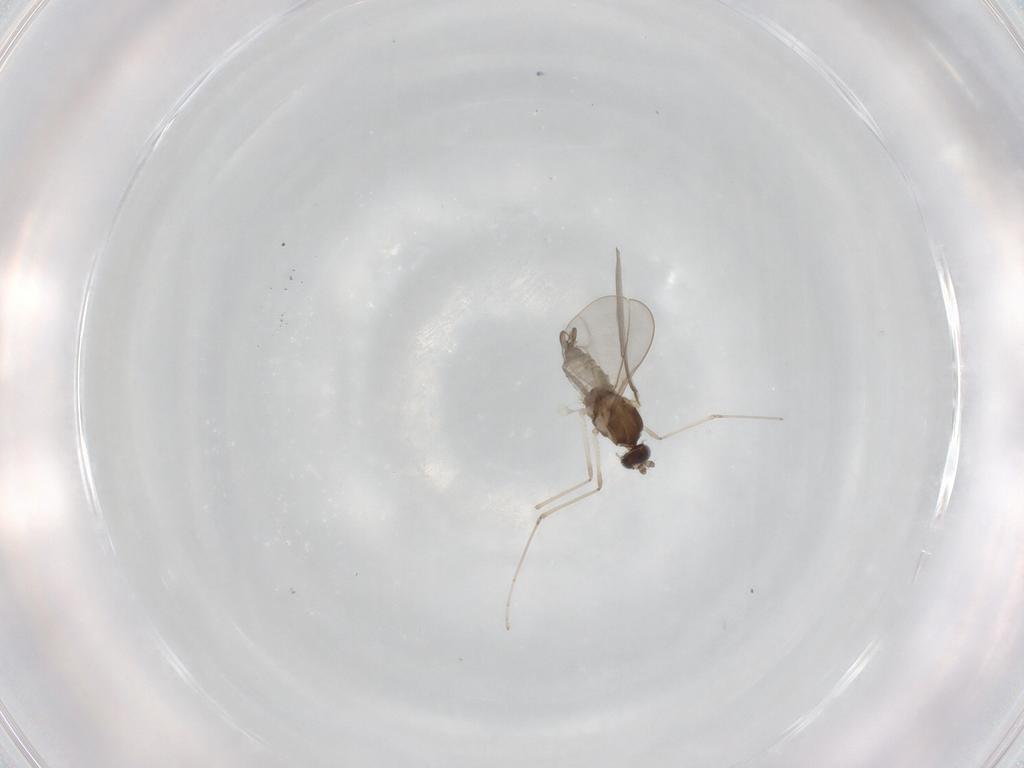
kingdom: Animalia
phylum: Arthropoda
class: Insecta
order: Diptera
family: Cecidomyiidae
